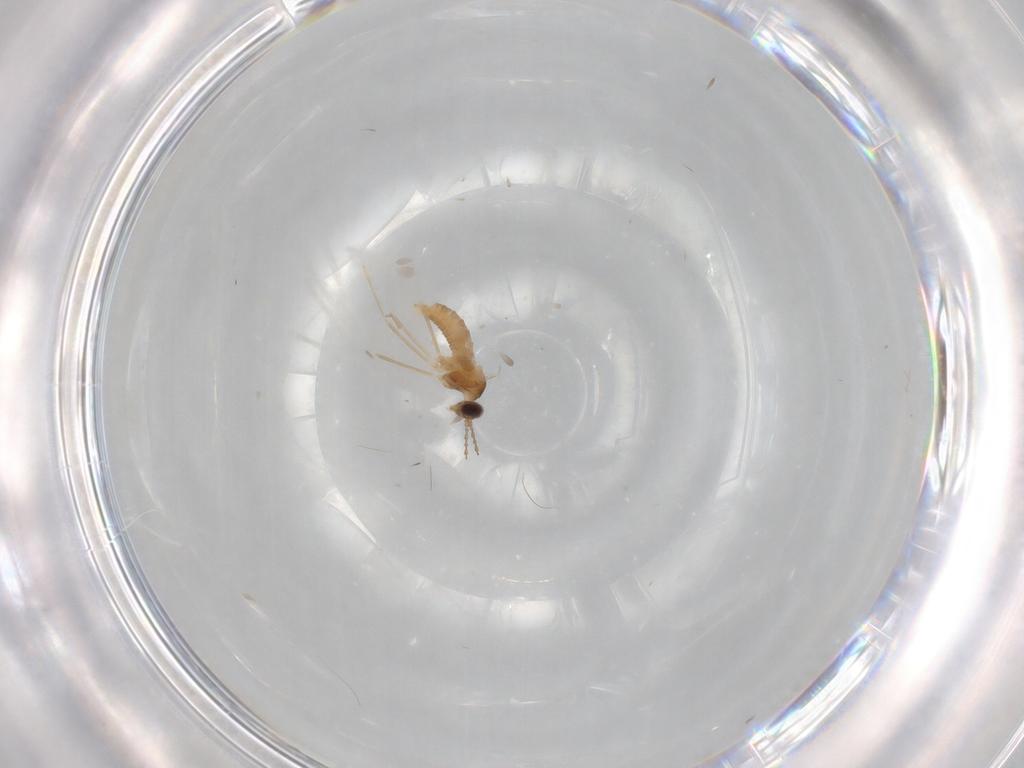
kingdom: Animalia
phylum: Arthropoda
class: Insecta
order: Diptera
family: Cecidomyiidae
